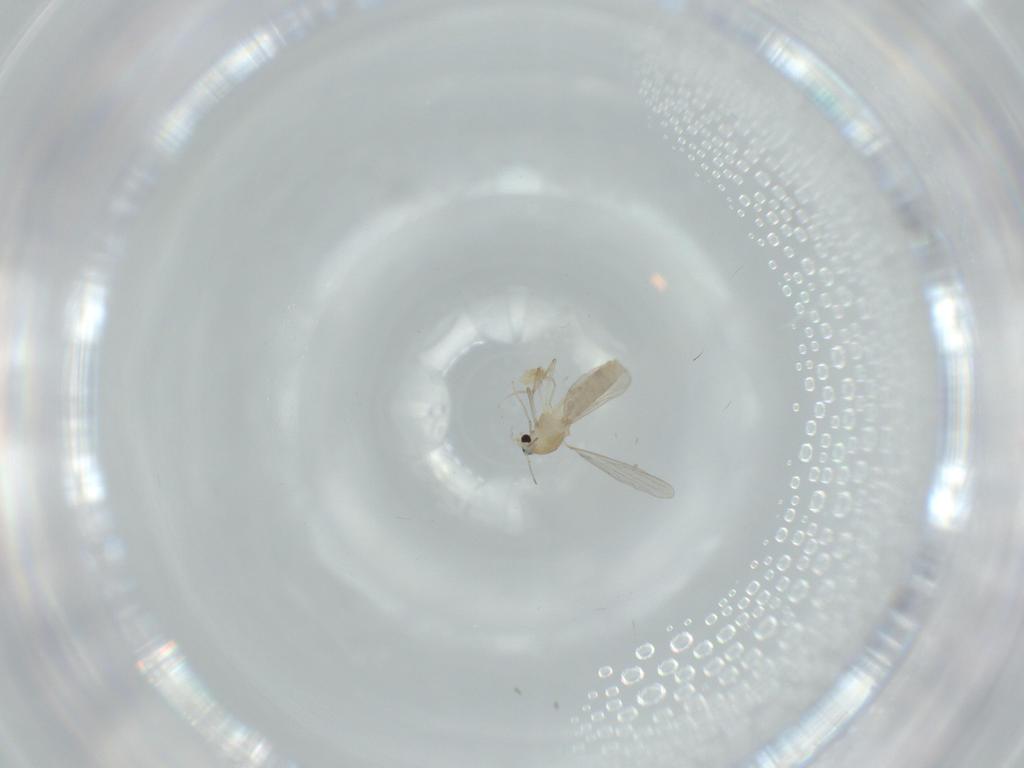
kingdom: Animalia
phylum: Arthropoda
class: Insecta
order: Diptera
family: Chironomidae
